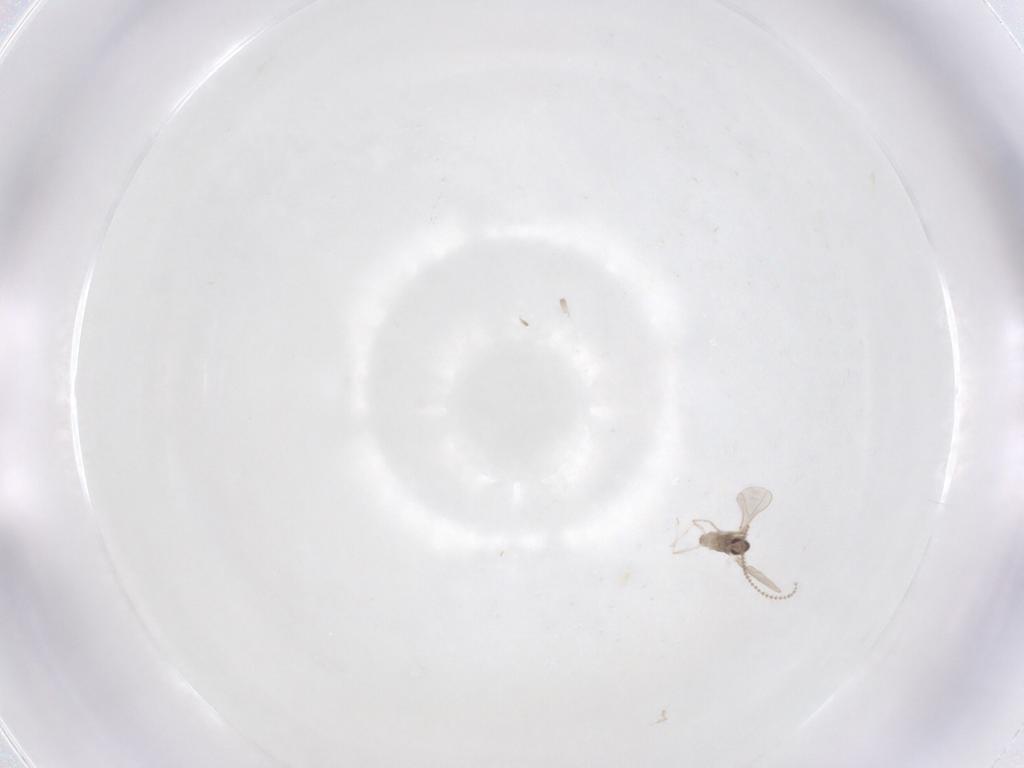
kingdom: Animalia
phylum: Arthropoda
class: Insecta
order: Diptera
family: Cecidomyiidae
